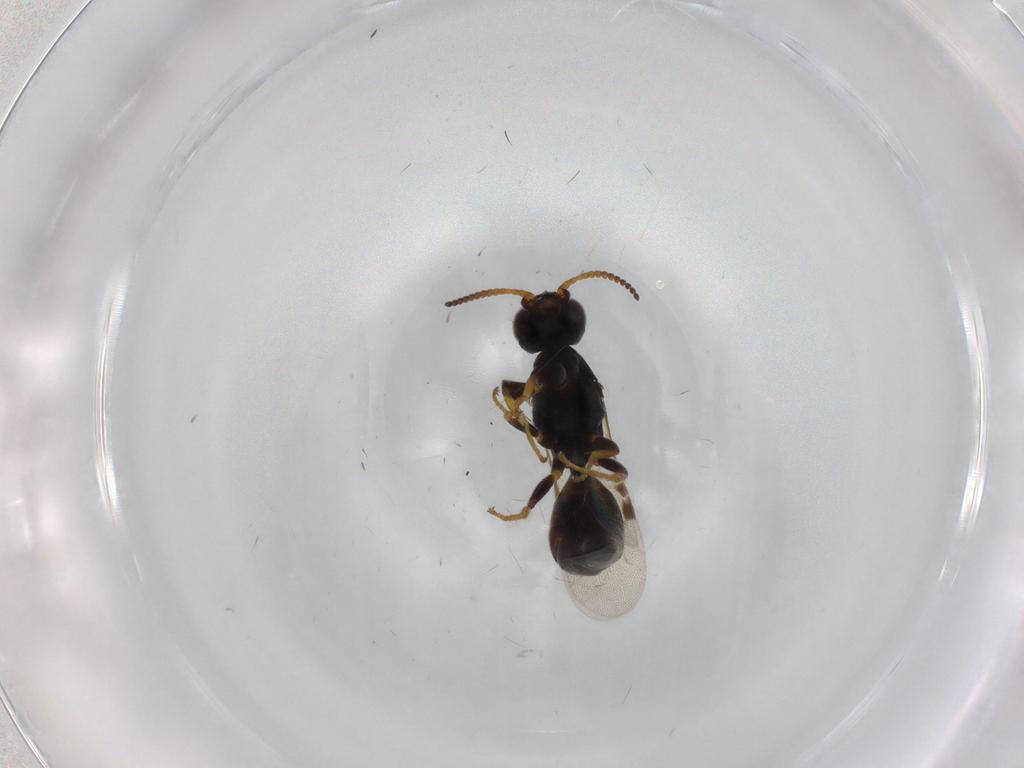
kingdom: Animalia
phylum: Arthropoda
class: Insecta
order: Hymenoptera
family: Bethylidae
